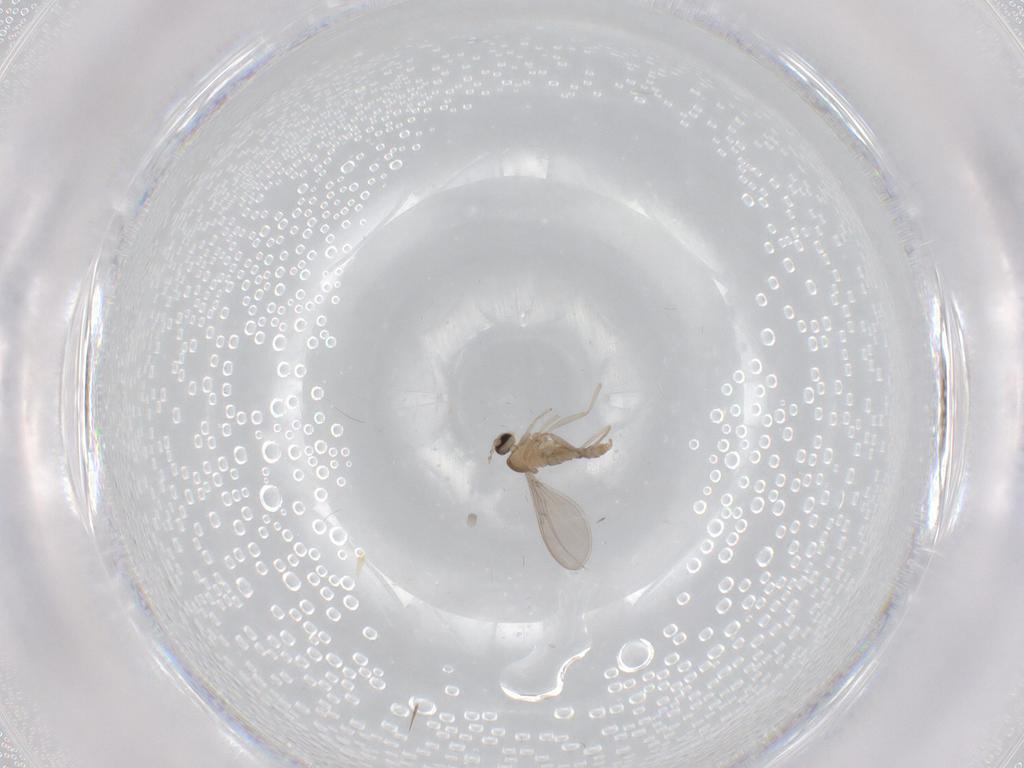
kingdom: Animalia
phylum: Arthropoda
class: Insecta
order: Diptera
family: Cecidomyiidae
